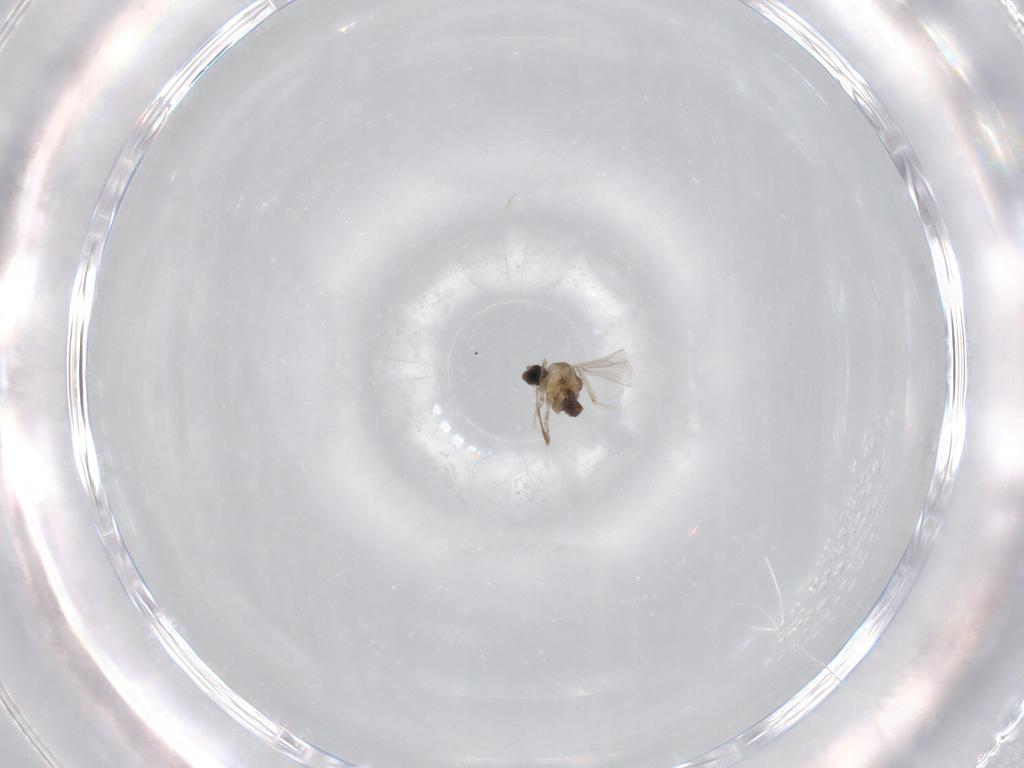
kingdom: Animalia
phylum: Arthropoda
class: Insecta
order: Diptera
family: Cecidomyiidae
